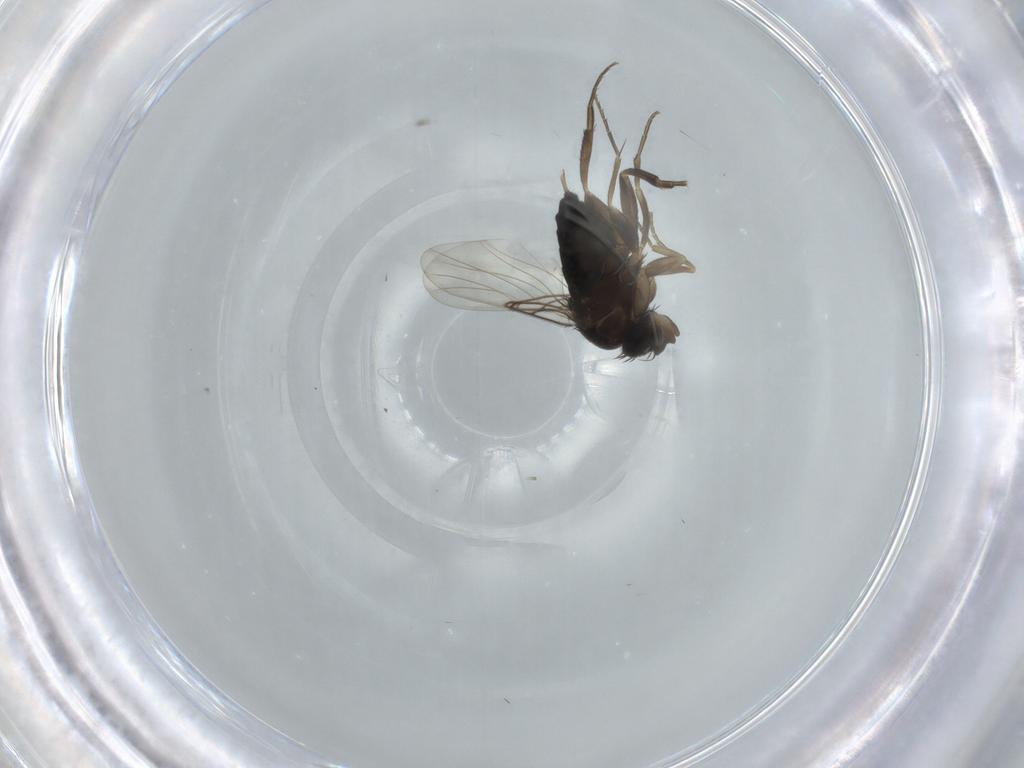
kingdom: Animalia
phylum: Arthropoda
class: Insecta
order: Diptera
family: Phoridae
